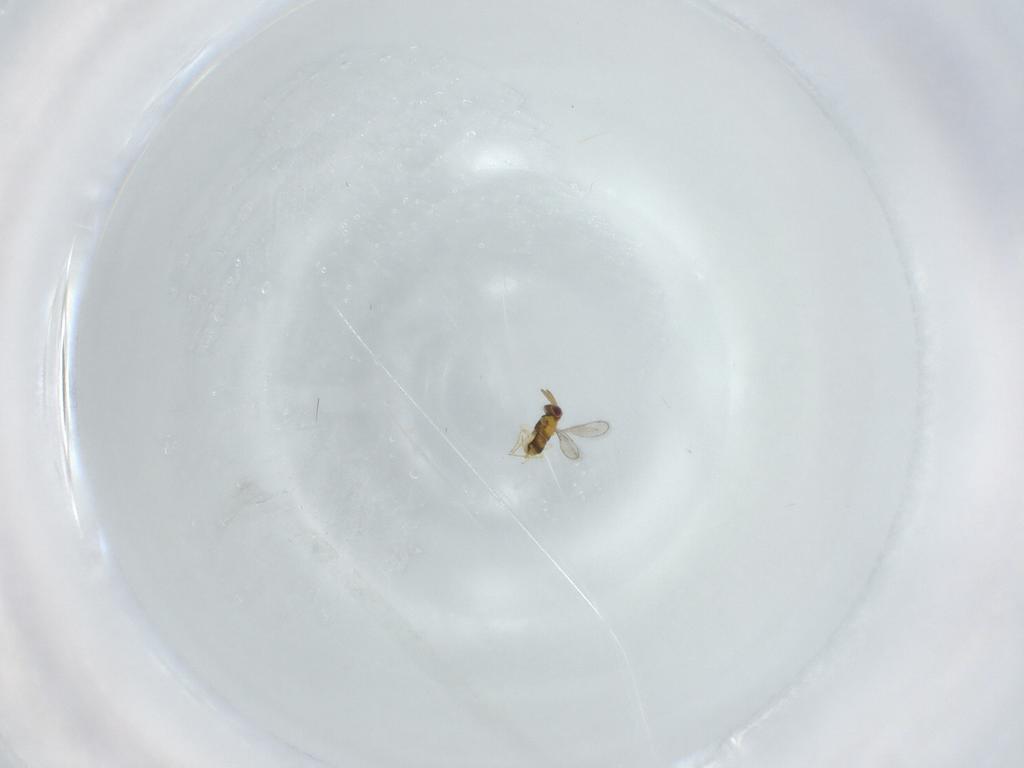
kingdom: Animalia
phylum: Arthropoda
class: Insecta
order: Hymenoptera
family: Aphelinidae
